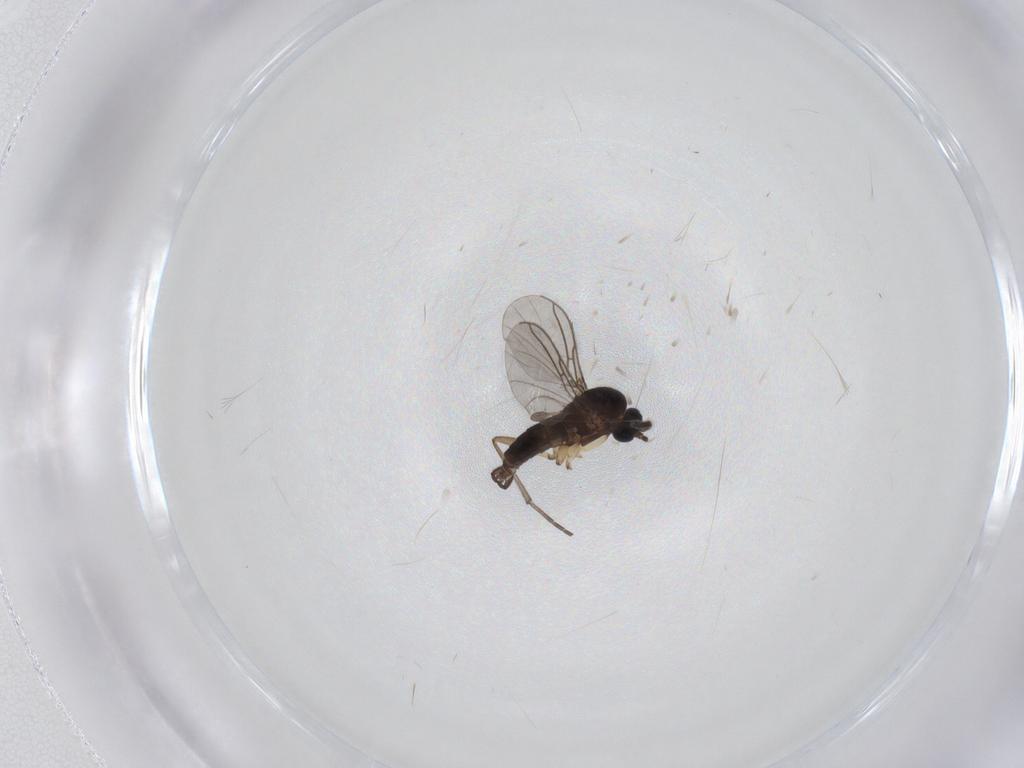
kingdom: Animalia
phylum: Arthropoda
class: Insecta
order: Diptera
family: Sciaridae
